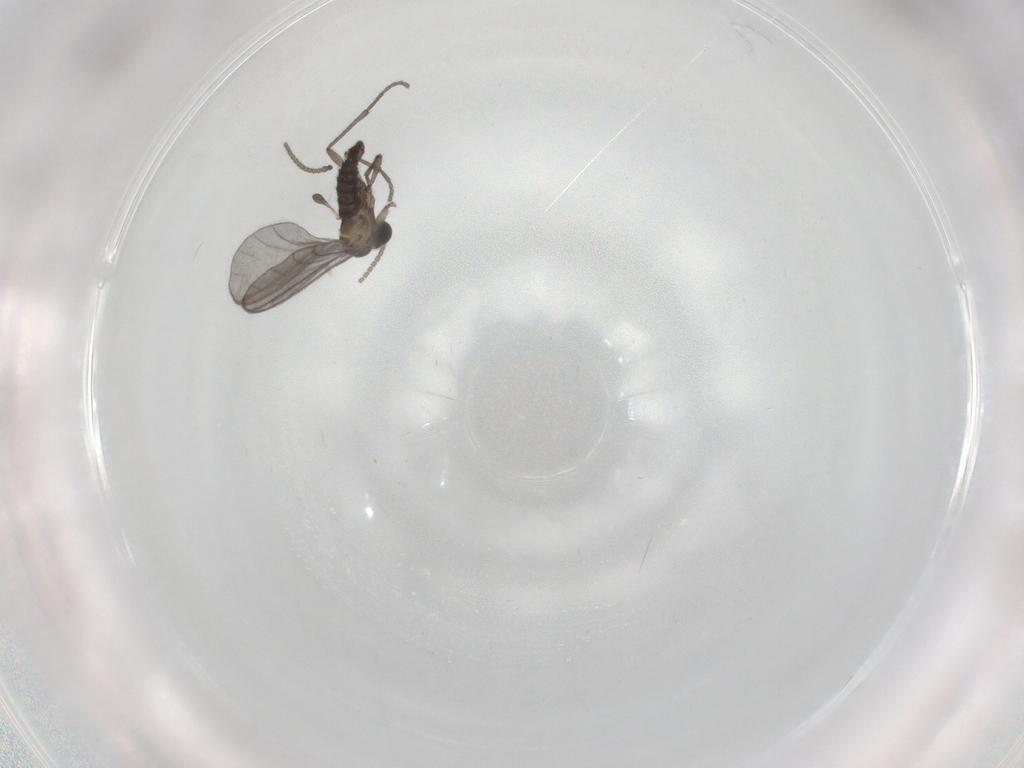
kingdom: Animalia
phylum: Arthropoda
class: Insecta
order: Diptera
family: Sciaridae
